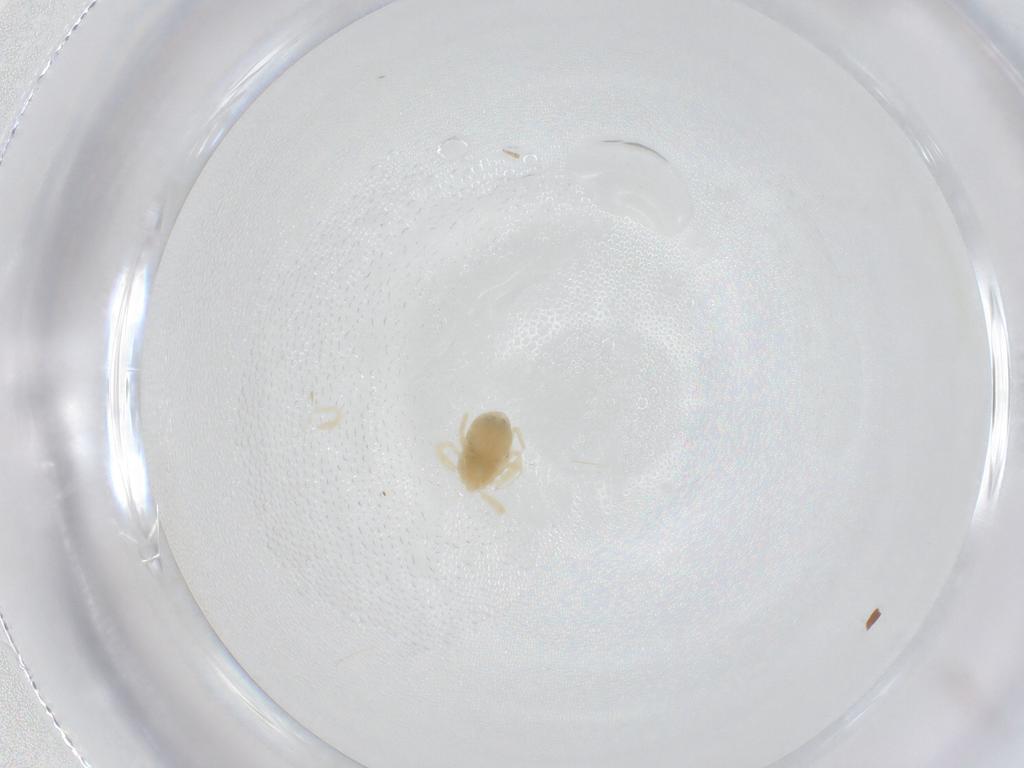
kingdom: Animalia
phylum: Arthropoda
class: Arachnida
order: Trombidiformes
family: Anystidae
